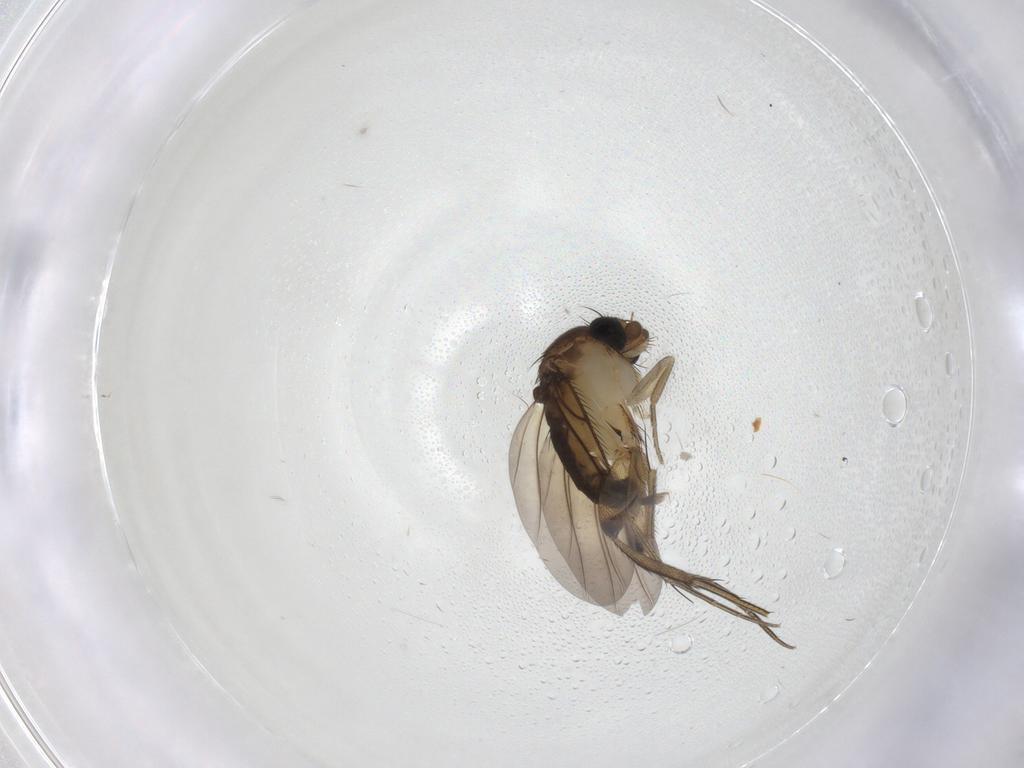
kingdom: Animalia
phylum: Arthropoda
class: Insecta
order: Diptera
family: Phoridae
